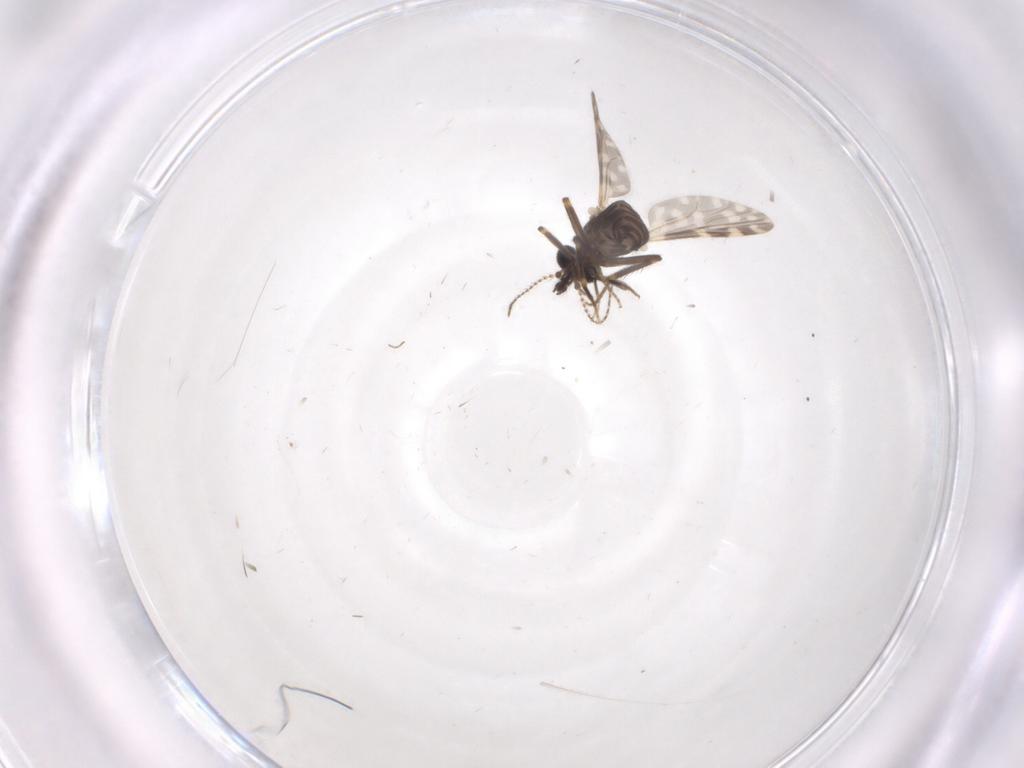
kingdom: Animalia
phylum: Arthropoda
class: Insecta
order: Diptera
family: Ceratopogonidae
